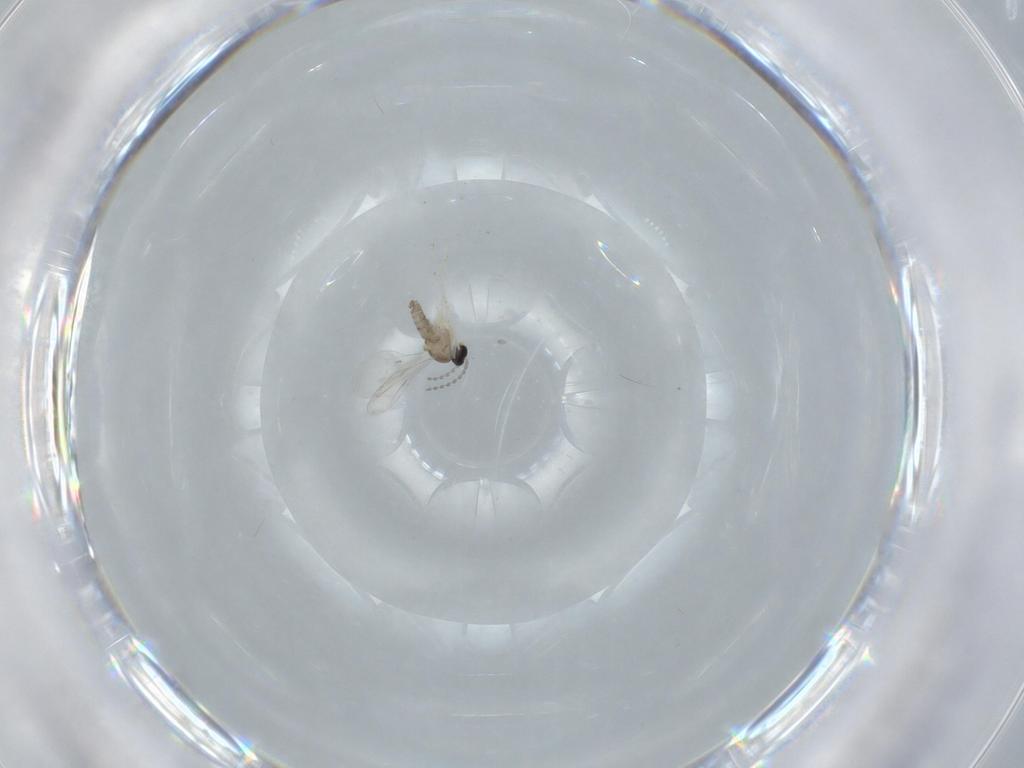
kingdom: Animalia
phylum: Arthropoda
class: Insecta
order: Diptera
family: Cecidomyiidae
